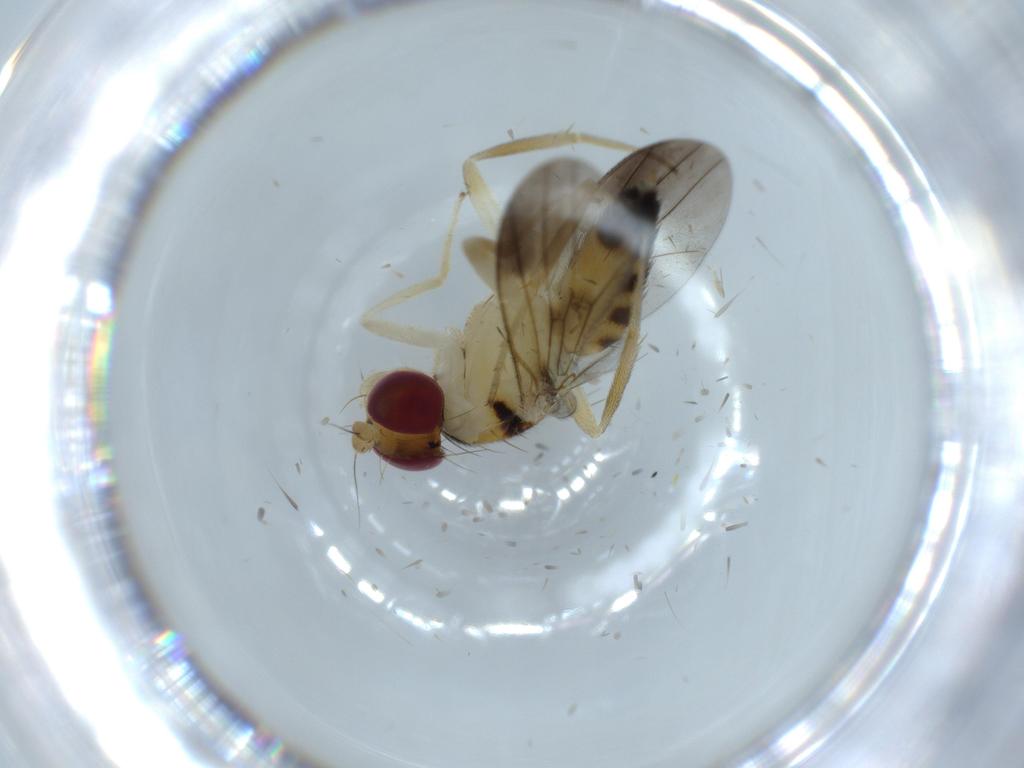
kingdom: Animalia
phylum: Arthropoda
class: Insecta
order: Diptera
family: Clusiidae
